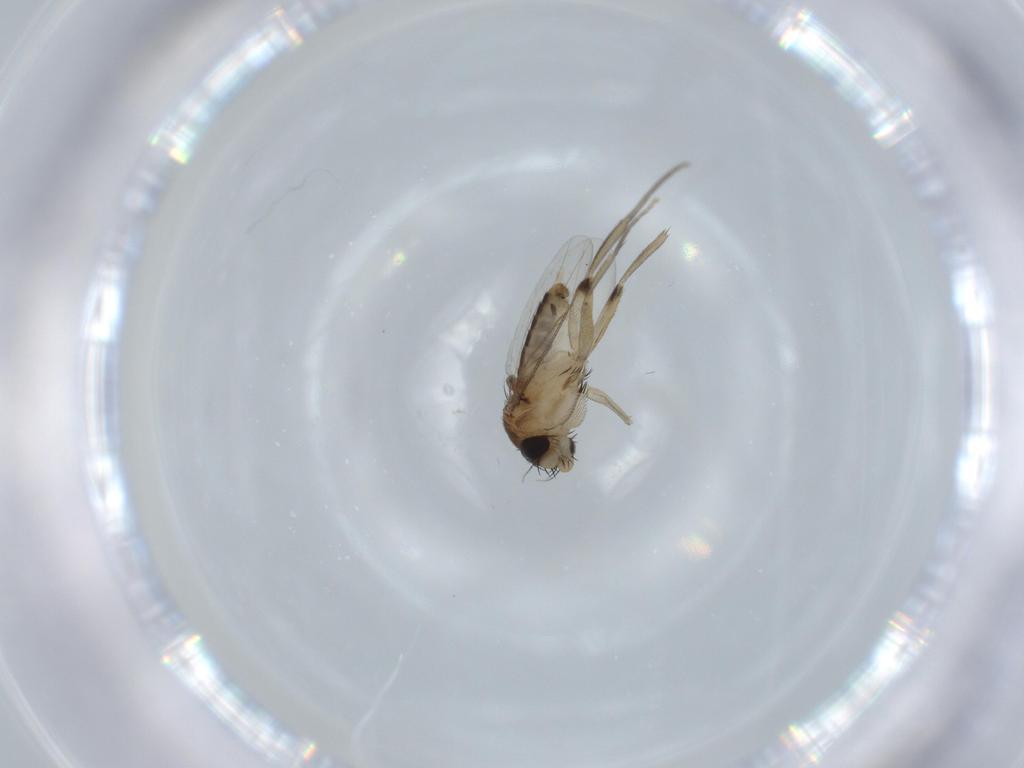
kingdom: Animalia
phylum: Arthropoda
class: Insecta
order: Diptera
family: Phoridae
